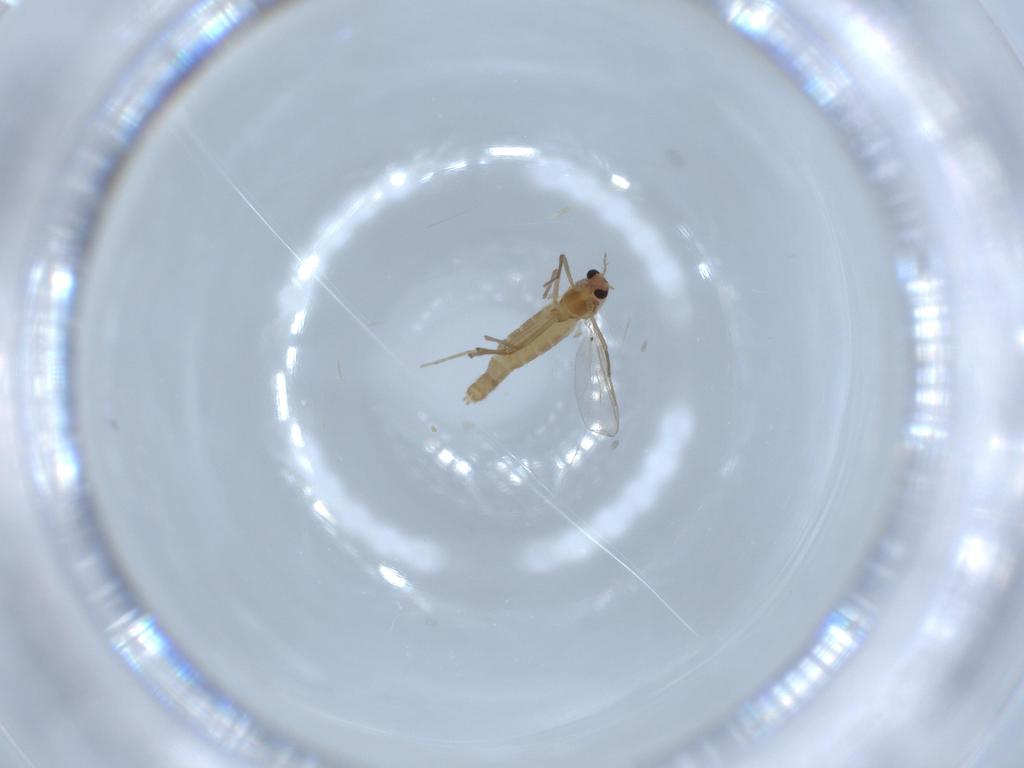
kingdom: Animalia
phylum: Arthropoda
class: Insecta
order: Diptera
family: Chironomidae
